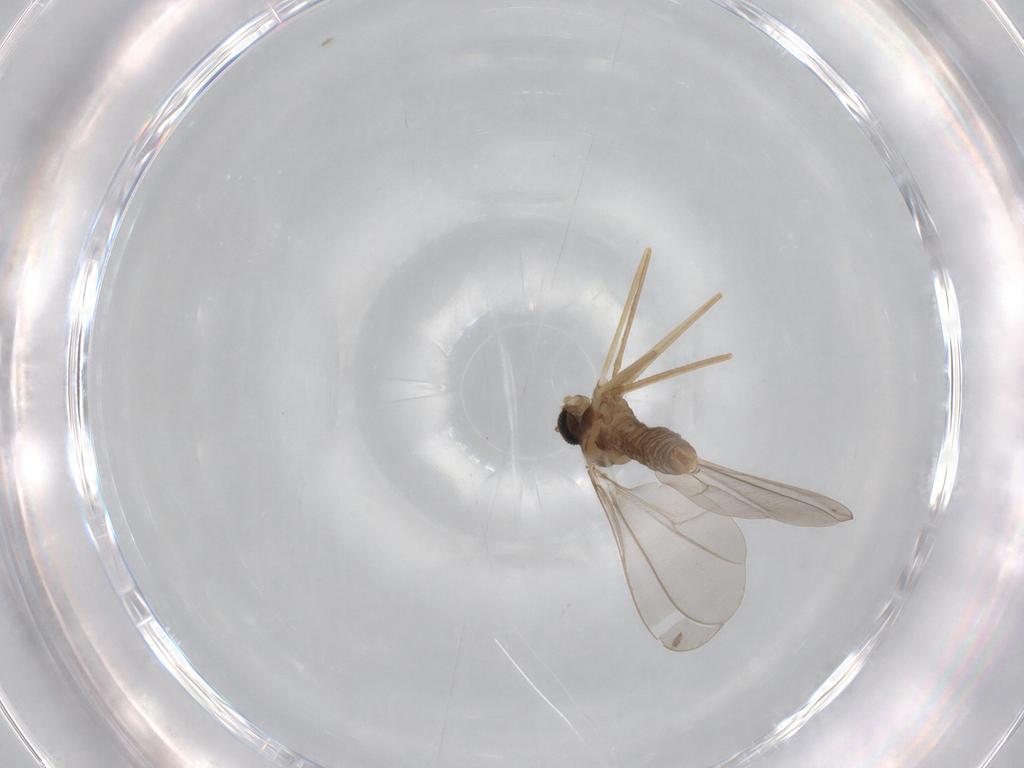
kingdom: Animalia
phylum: Arthropoda
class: Insecta
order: Diptera
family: Cecidomyiidae
